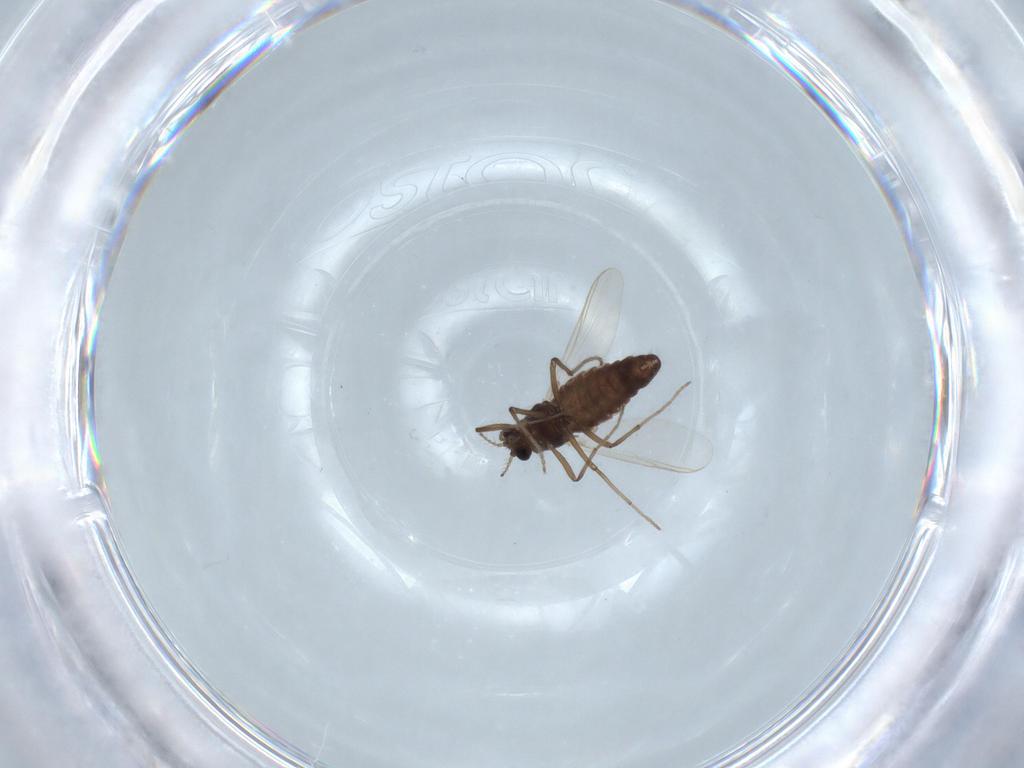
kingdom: Animalia
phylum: Arthropoda
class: Insecta
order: Diptera
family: Chironomidae
